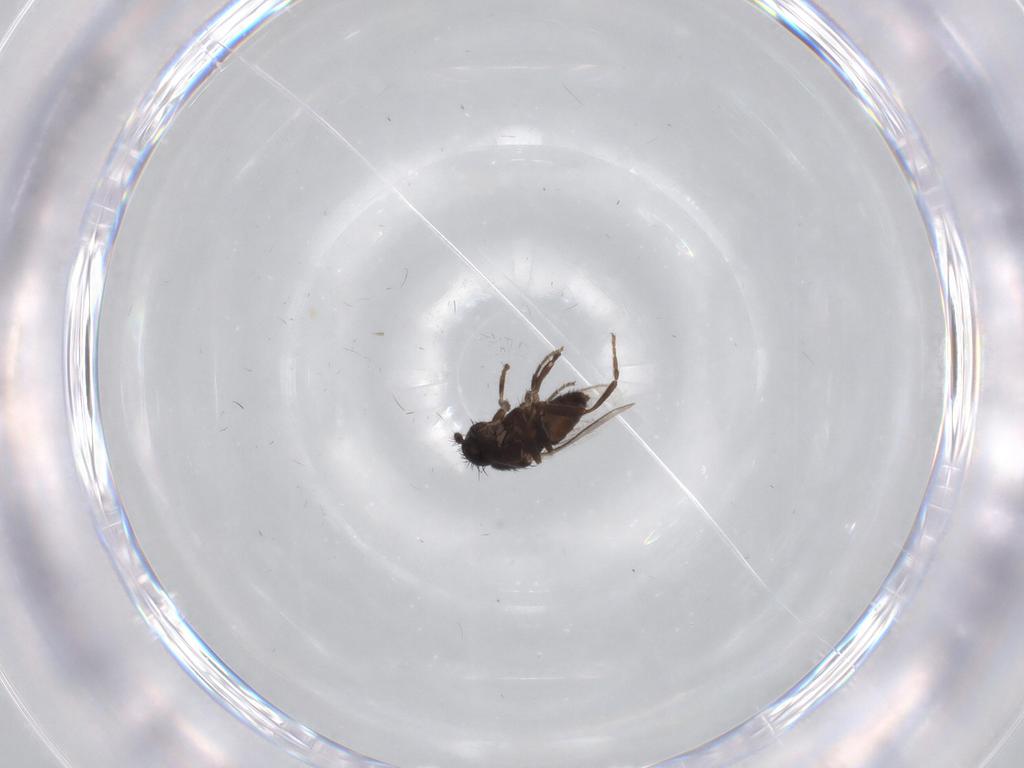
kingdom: Animalia
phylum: Arthropoda
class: Insecta
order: Diptera
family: Sphaeroceridae
